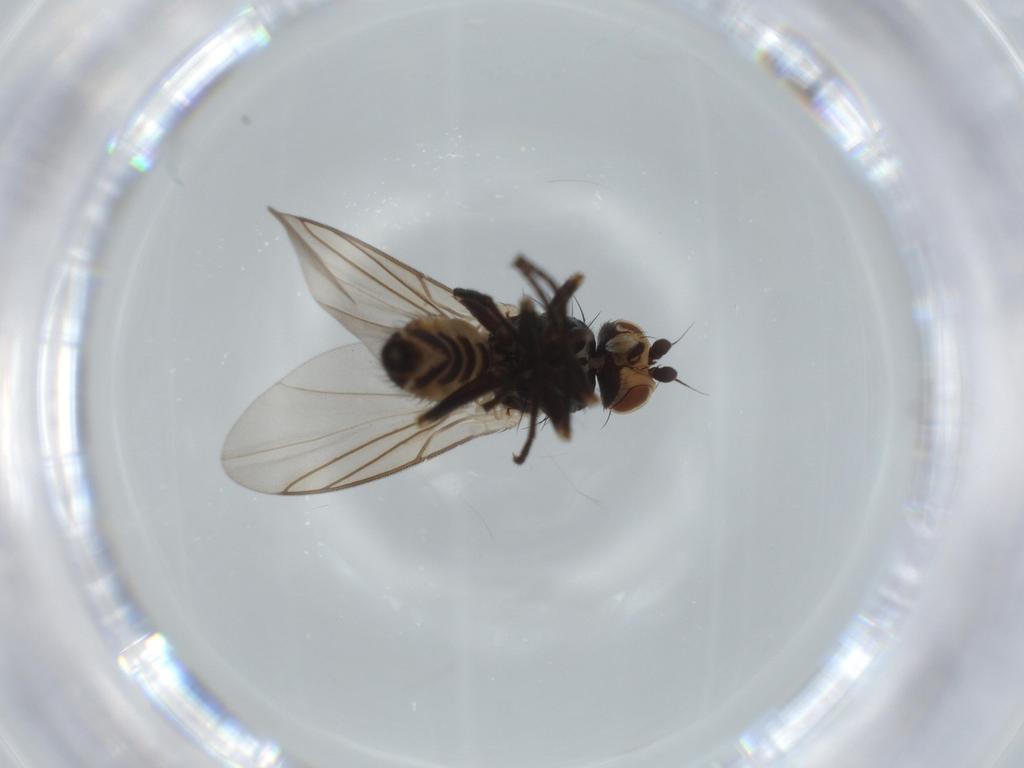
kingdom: Animalia
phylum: Arthropoda
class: Insecta
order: Diptera
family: Agromyzidae
